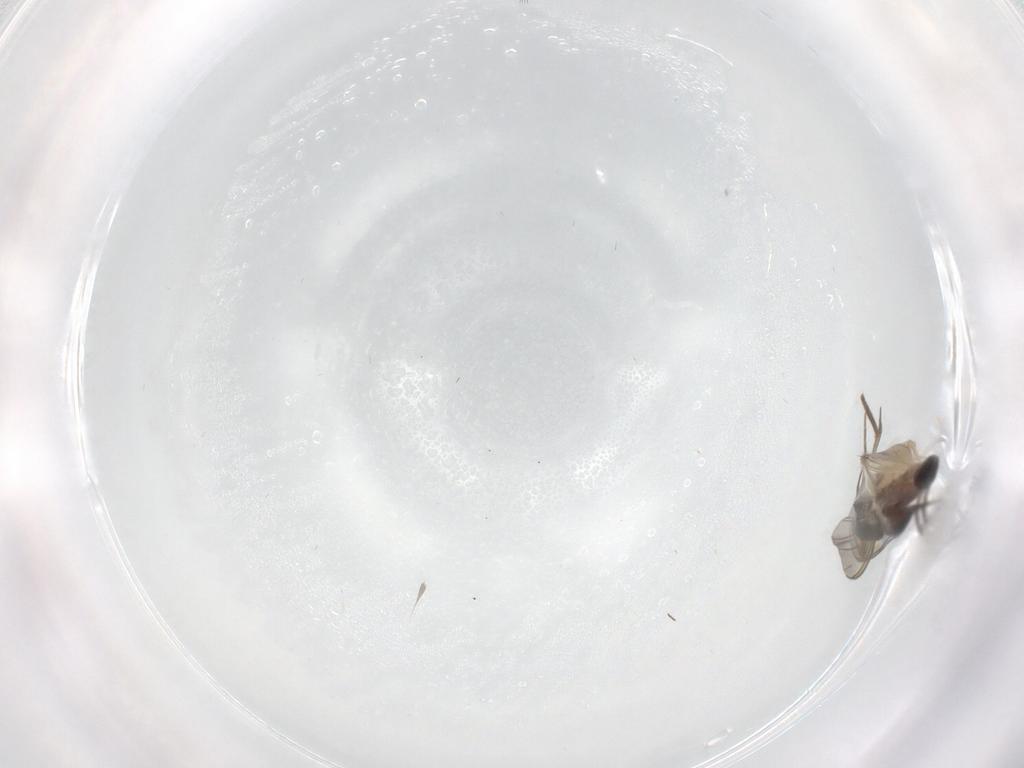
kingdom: Animalia
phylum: Arthropoda
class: Insecta
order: Diptera
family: Mycetophilidae
